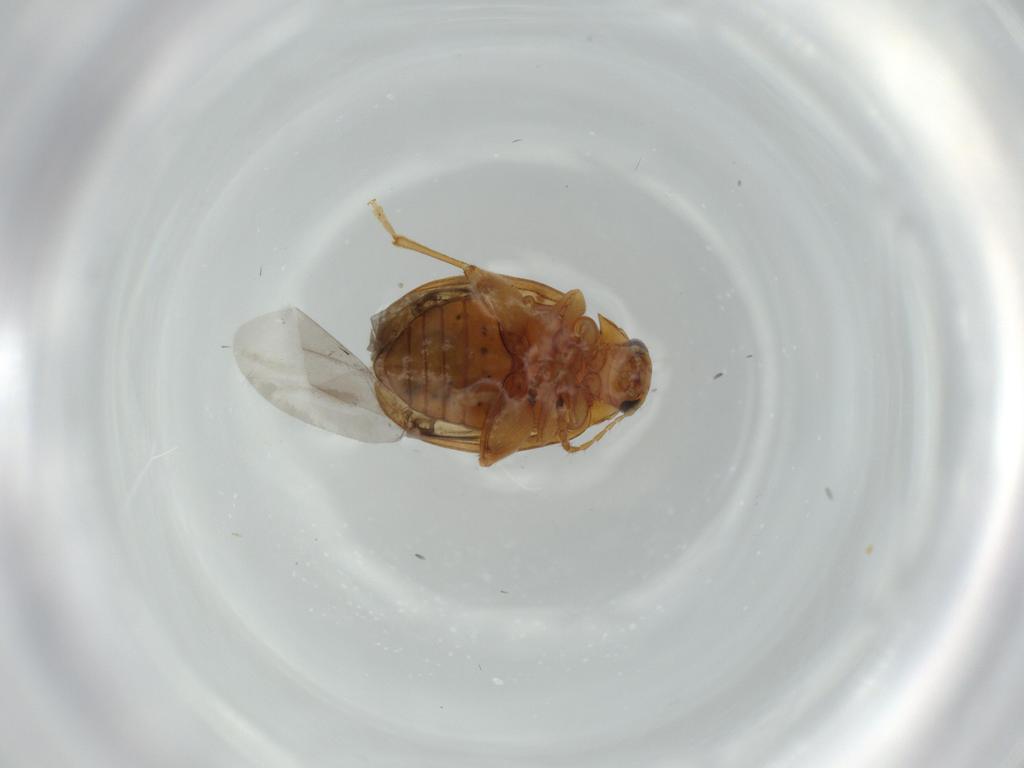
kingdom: Animalia
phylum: Arthropoda
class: Insecta
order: Coleoptera
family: Chrysomelidae
